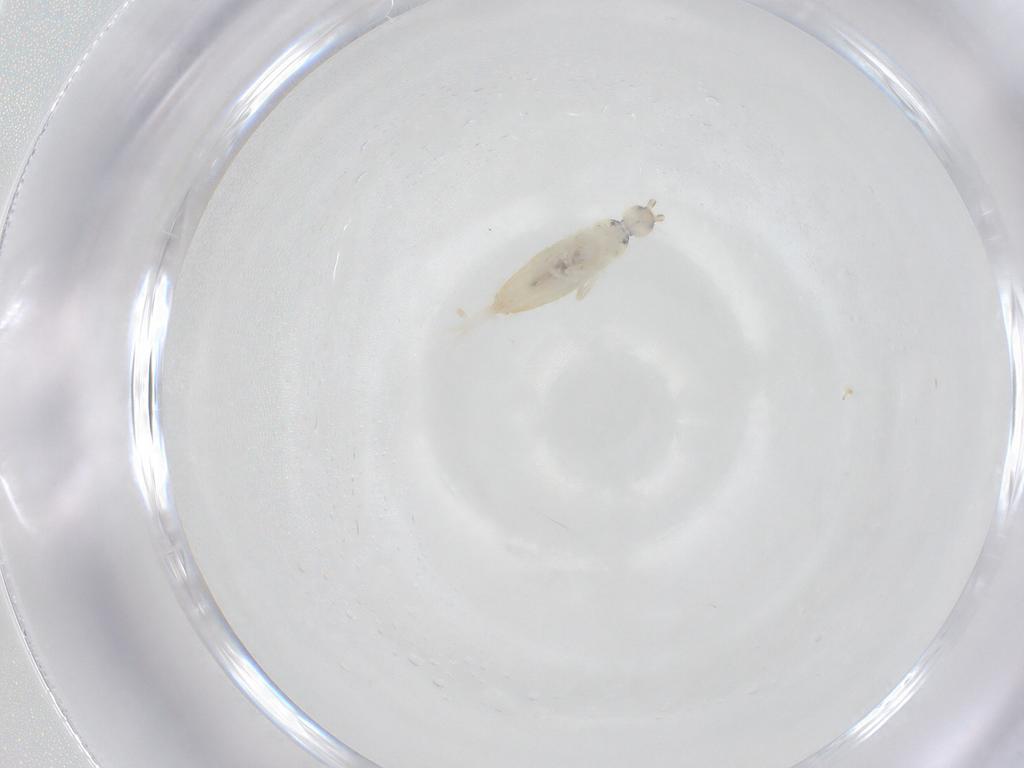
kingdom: Animalia
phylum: Arthropoda
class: Collembola
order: Entomobryomorpha
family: Entomobryidae
